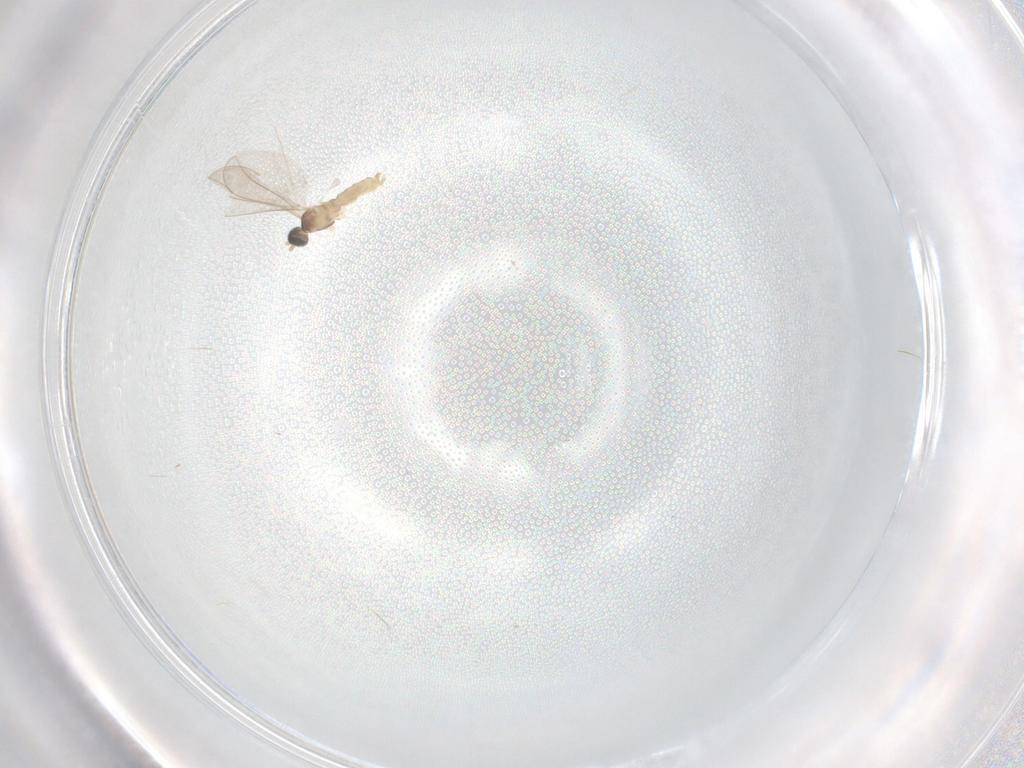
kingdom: Animalia
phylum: Arthropoda
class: Insecta
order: Diptera
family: Cecidomyiidae
